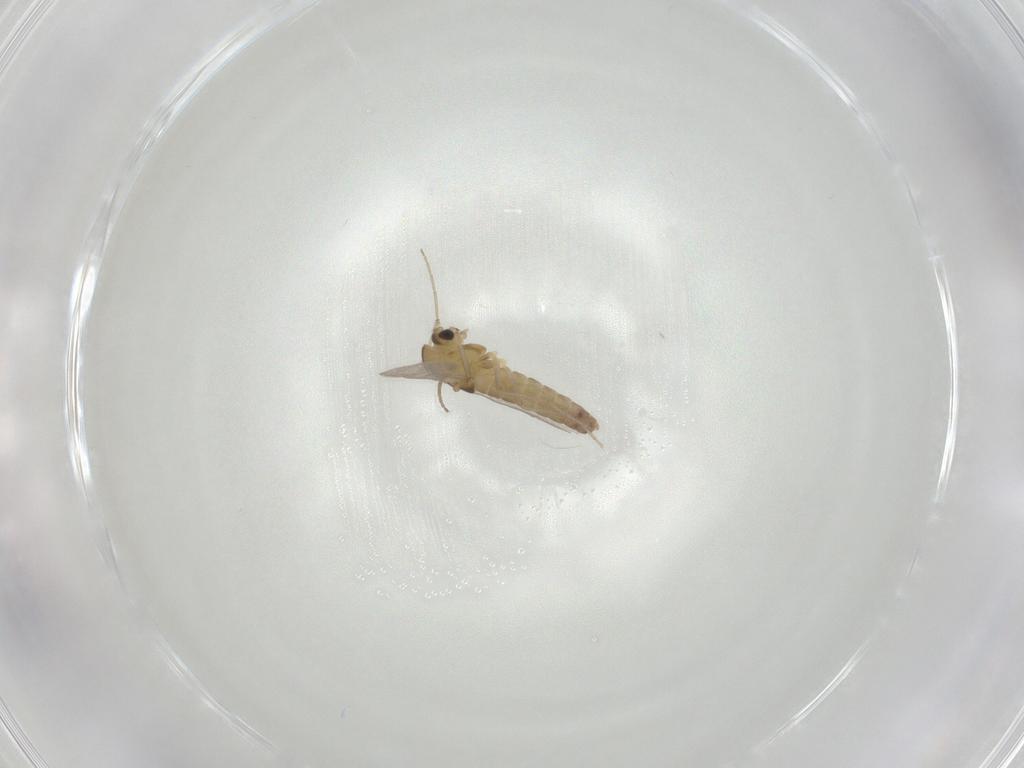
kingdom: Animalia
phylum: Arthropoda
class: Insecta
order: Diptera
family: Chironomidae
